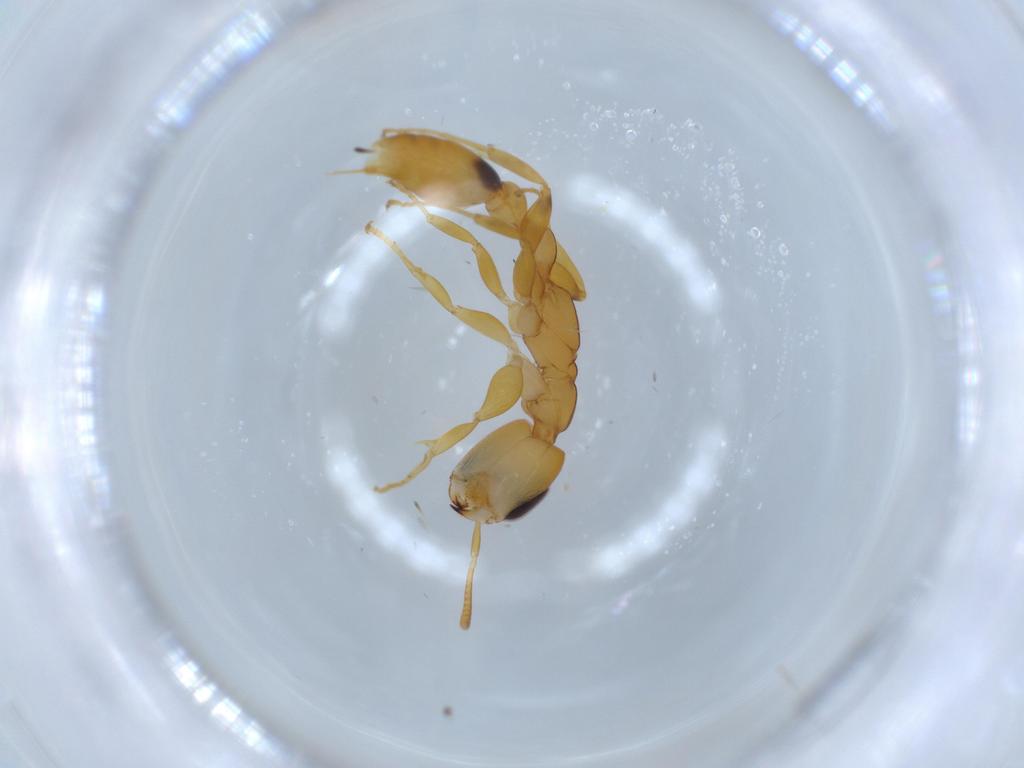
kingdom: Animalia
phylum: Arthropoda
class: Insecta
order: Hymenoptera
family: Formicidae
